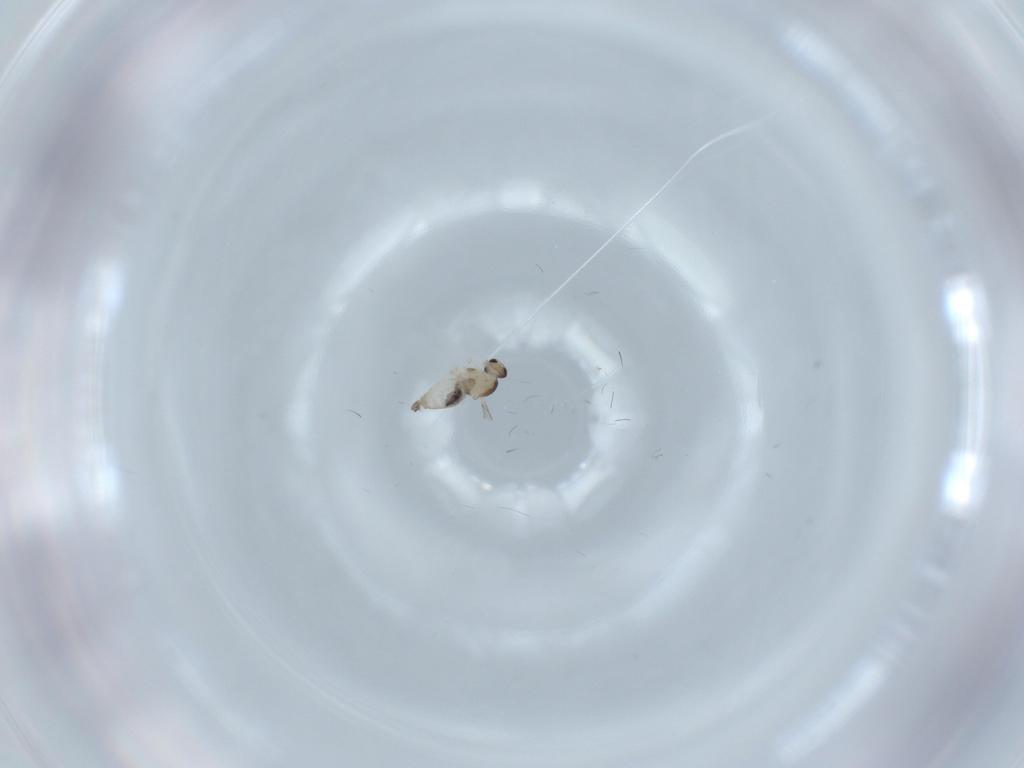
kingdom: Animalia
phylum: Arthropoda
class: Insecta
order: Diptera
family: Cecidomyiidae
